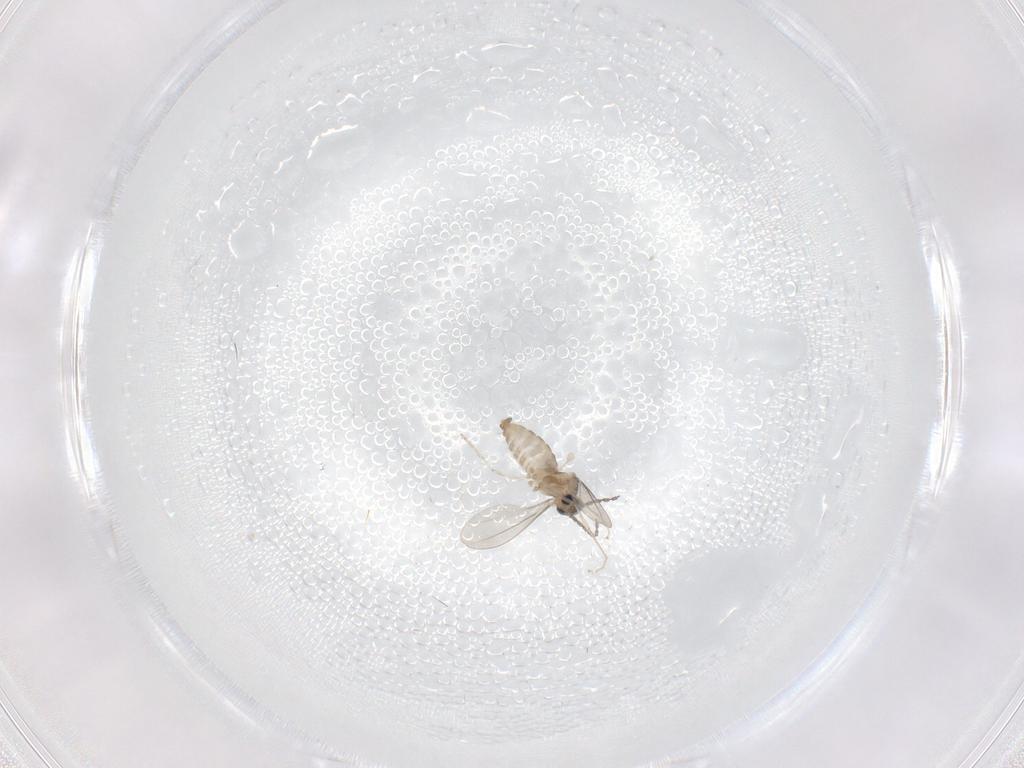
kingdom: Animalia
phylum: Arthropoda
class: Insecta
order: Diptera
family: Cecidomyiidae
